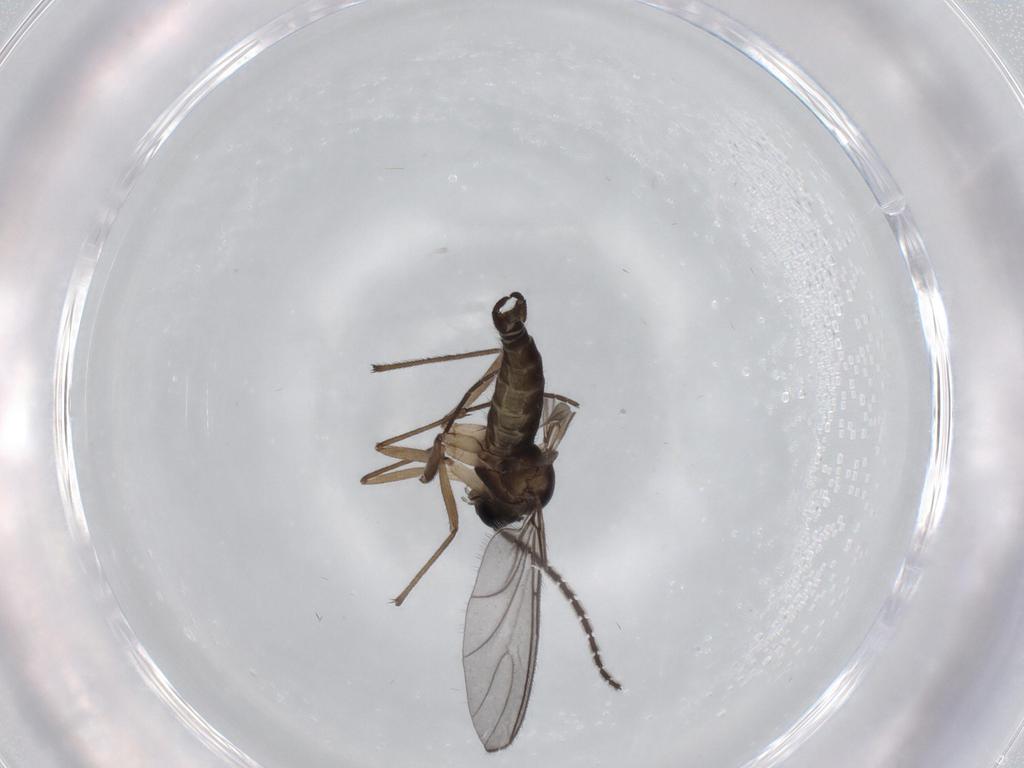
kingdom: Animalia
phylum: Arthropoda
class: Insecta
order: Diptera
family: Sciaridae
